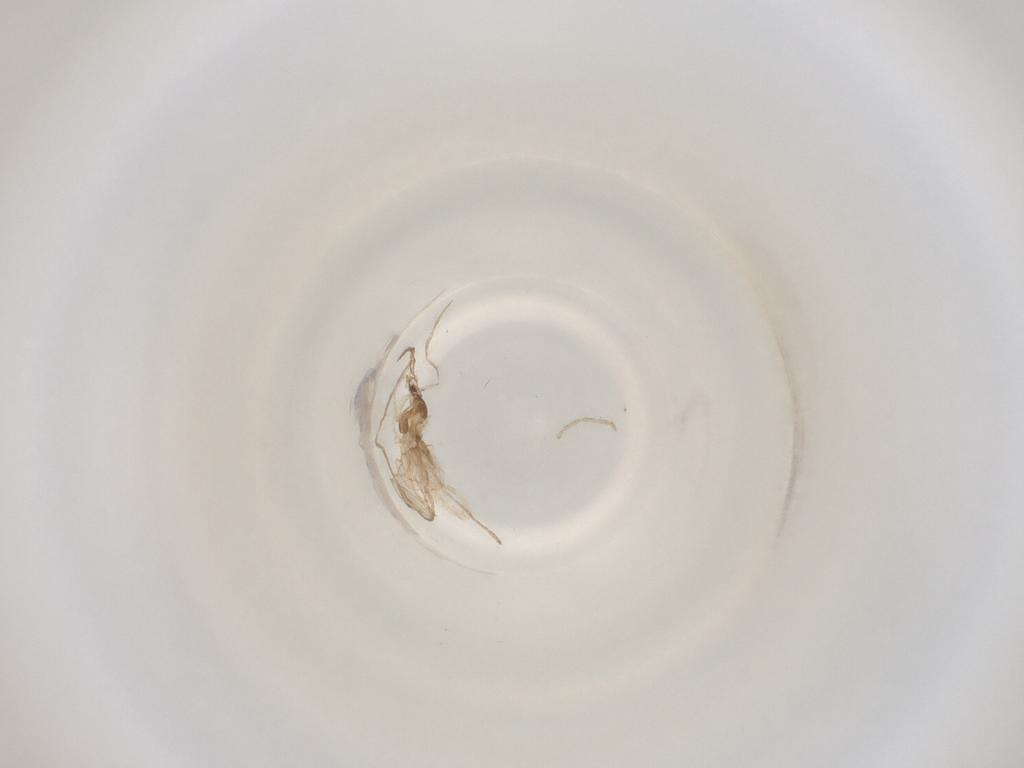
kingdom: Animalia
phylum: Arthropoda
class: Insecta
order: Diptera
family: Cecidomyiidae
